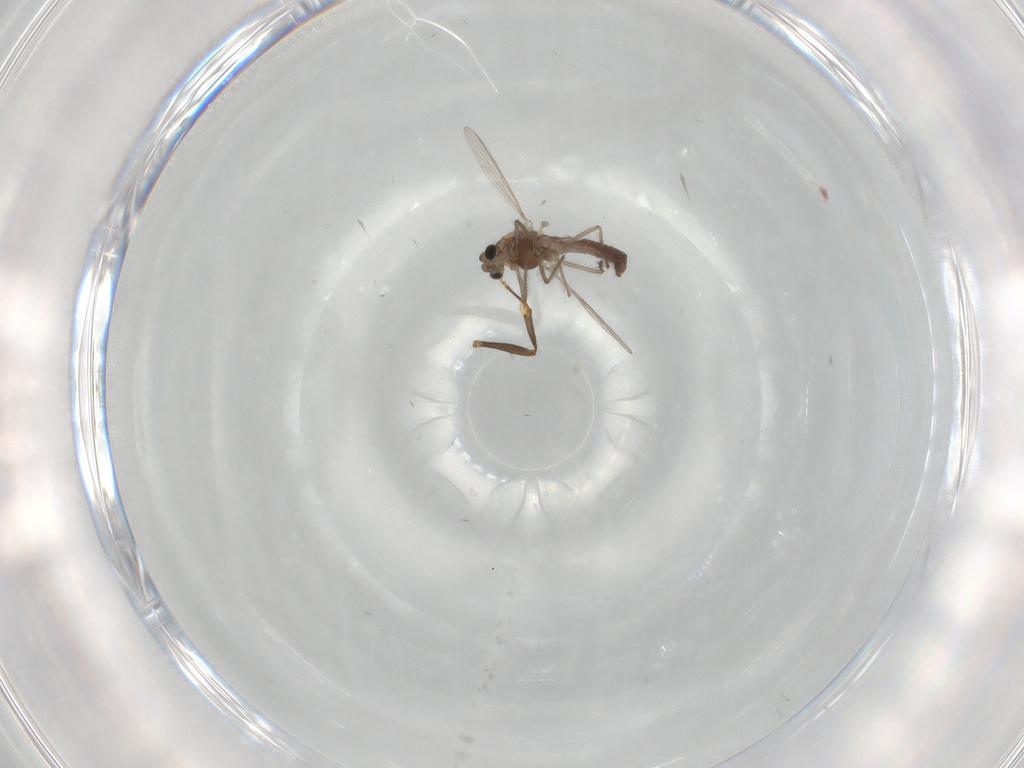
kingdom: Animalia
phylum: Arthropoda
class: Insecta
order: Diptera
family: Chironomidae
